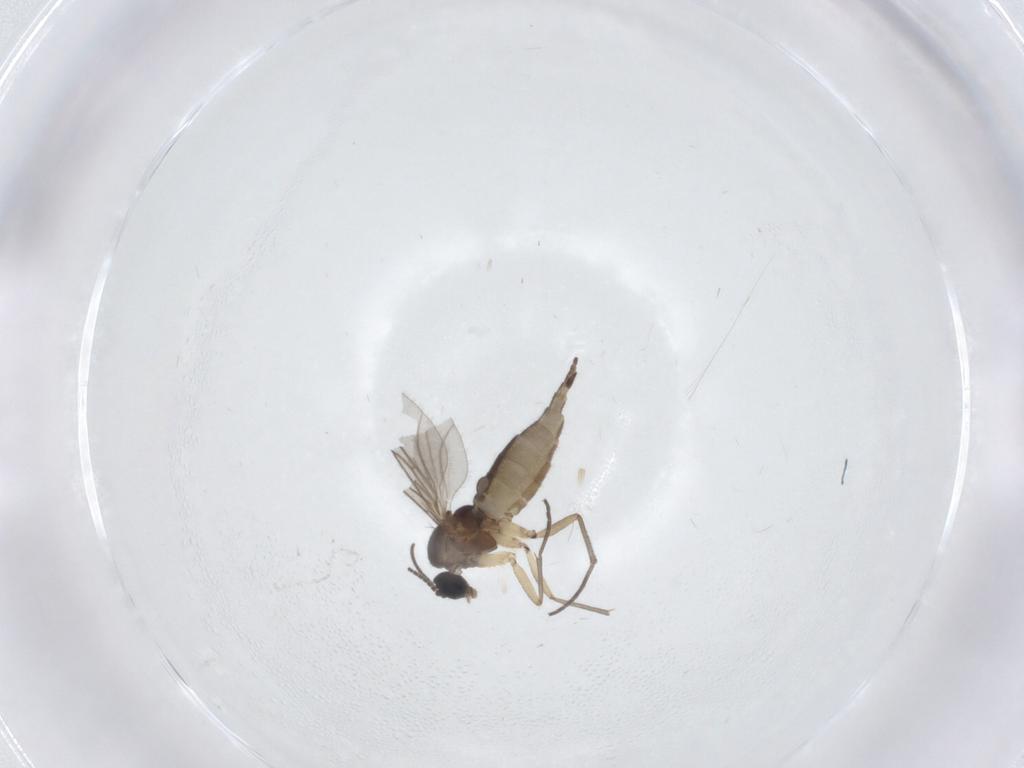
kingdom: Animalia
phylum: Arthropoda
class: Insecta
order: Diptera
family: Sciaridae
